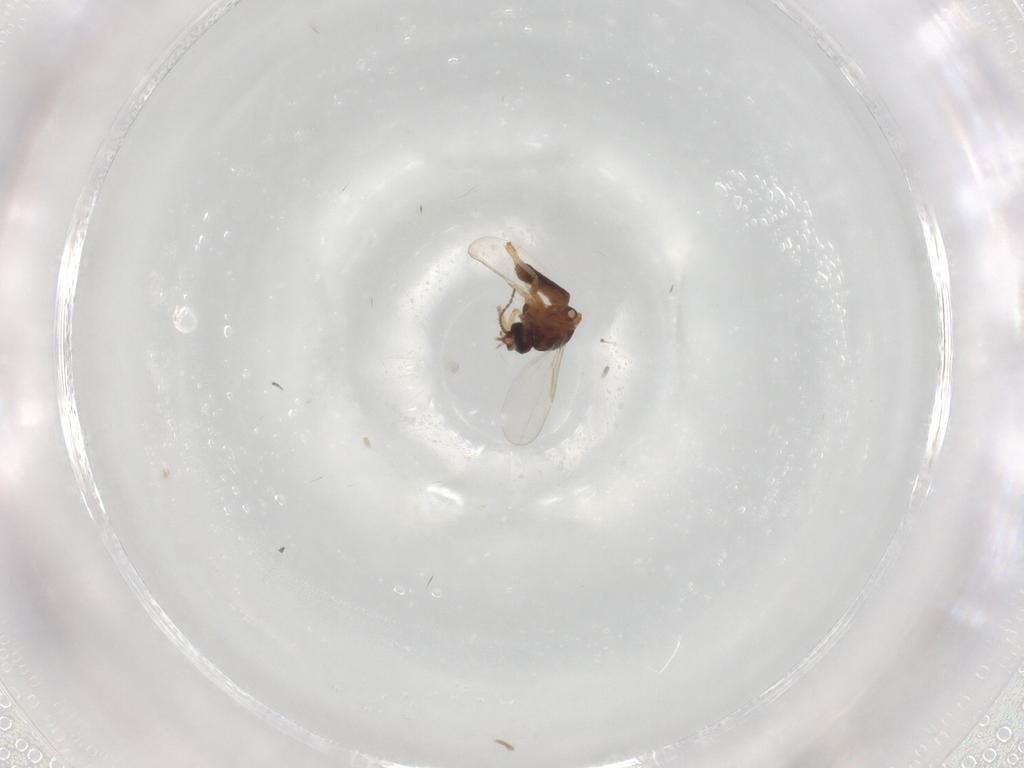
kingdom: Animalia
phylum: Arthropoda
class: Insecta
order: Diptera
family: Ceratopogonidae
